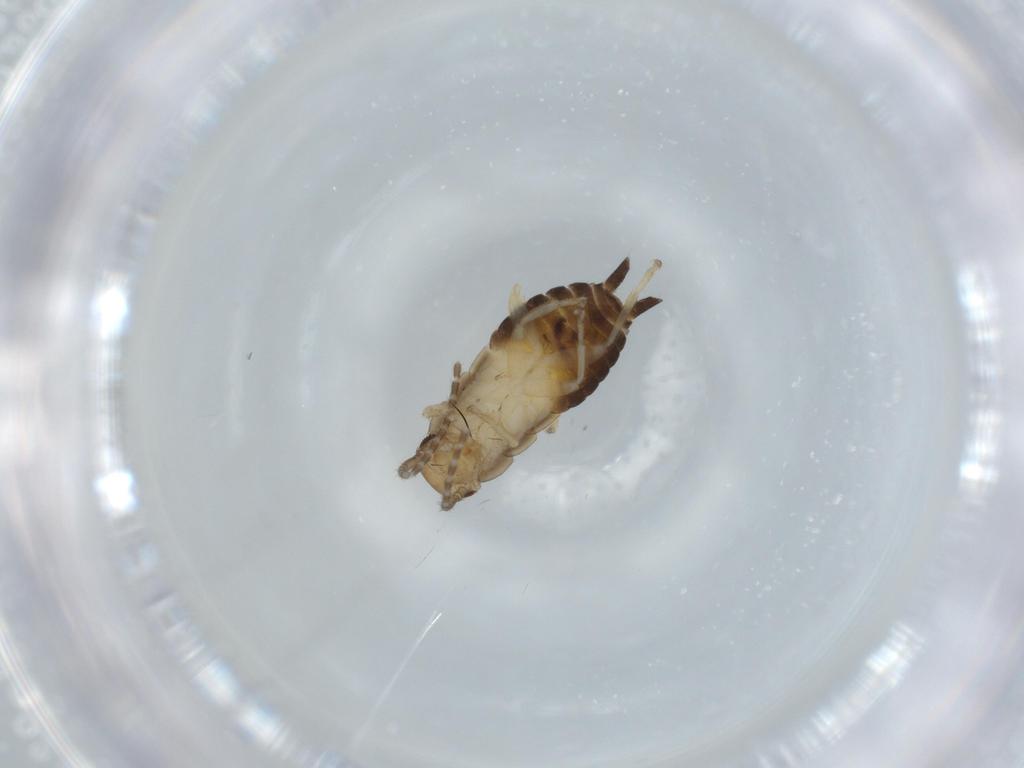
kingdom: Animalia
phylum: Arthropoda
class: Insecta
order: Blattodea
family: Ectobiidae
